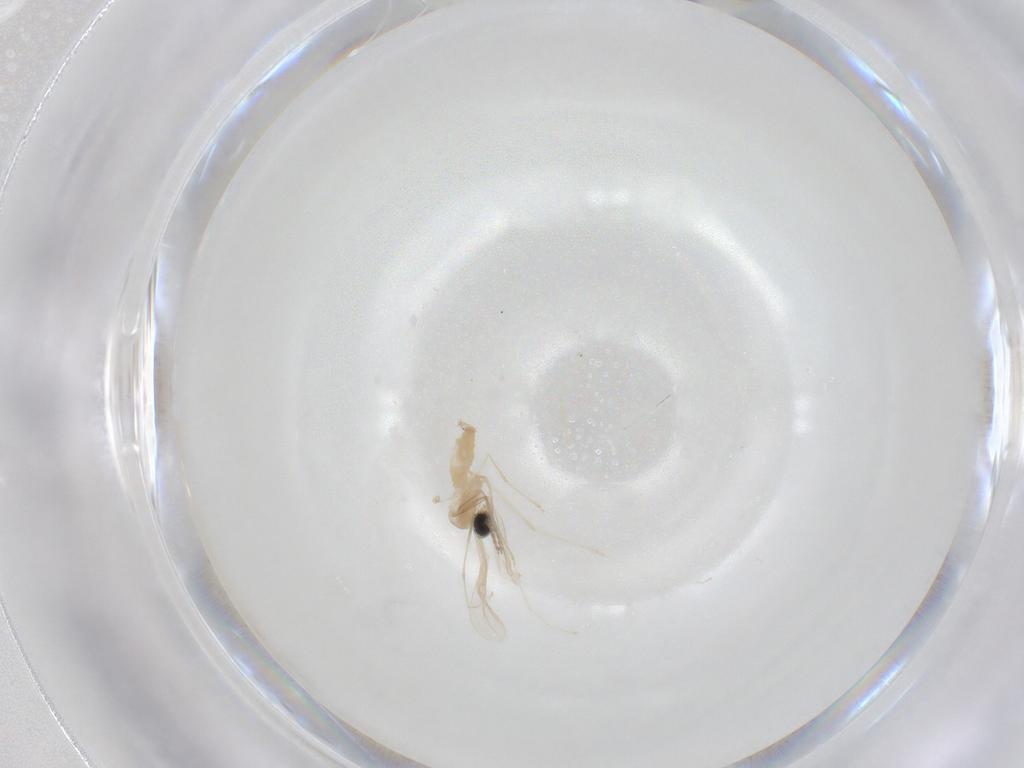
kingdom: Animalia
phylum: Arthropoda
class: Insecta
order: Diptera
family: Cecidomyiidae
